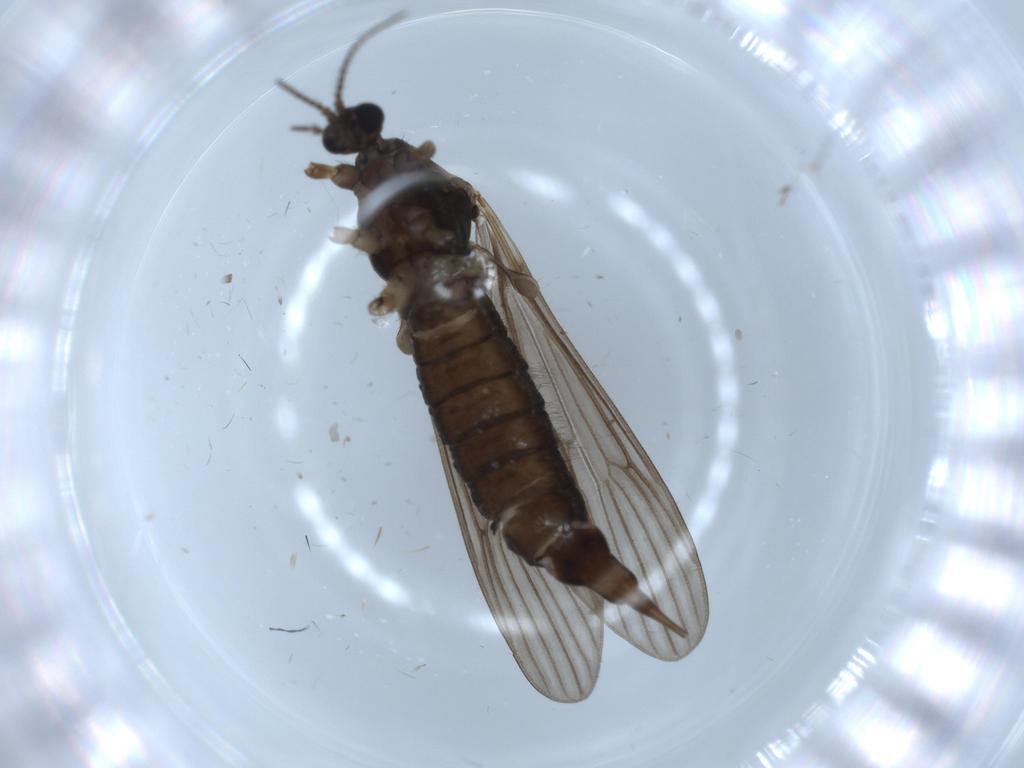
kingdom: Animalia
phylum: Arthropoda
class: Insecta
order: Diptera
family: Limoniidae
